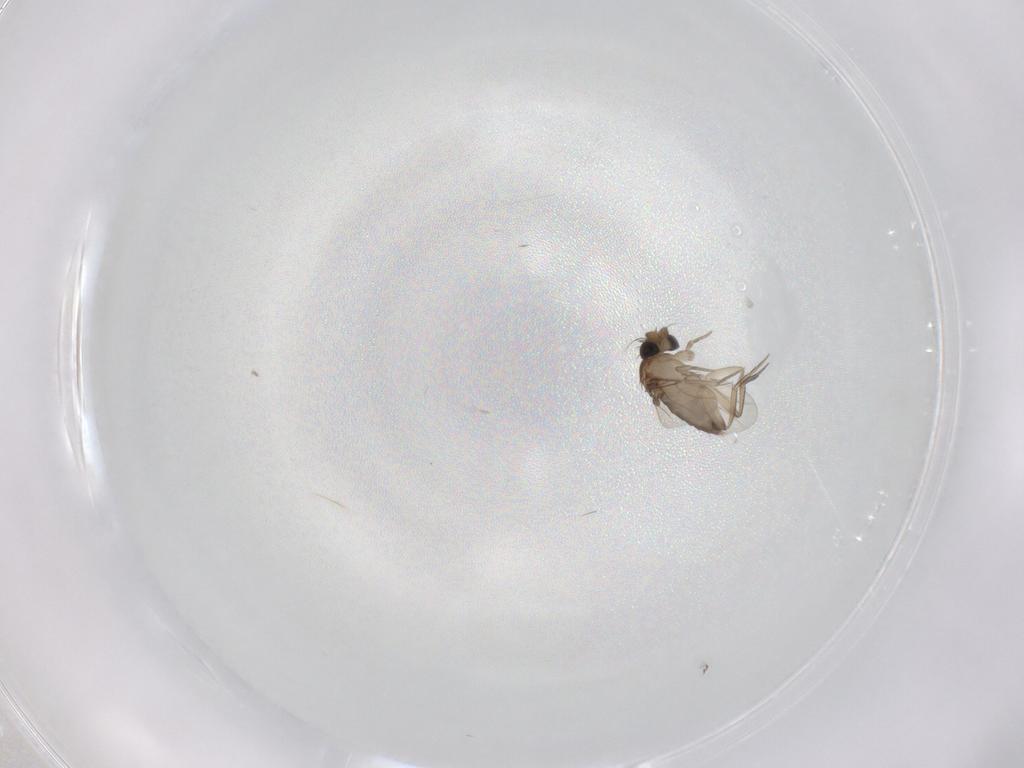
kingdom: Animalia
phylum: Arthropoda
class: Insecta
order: Diptera
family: Phoridae
